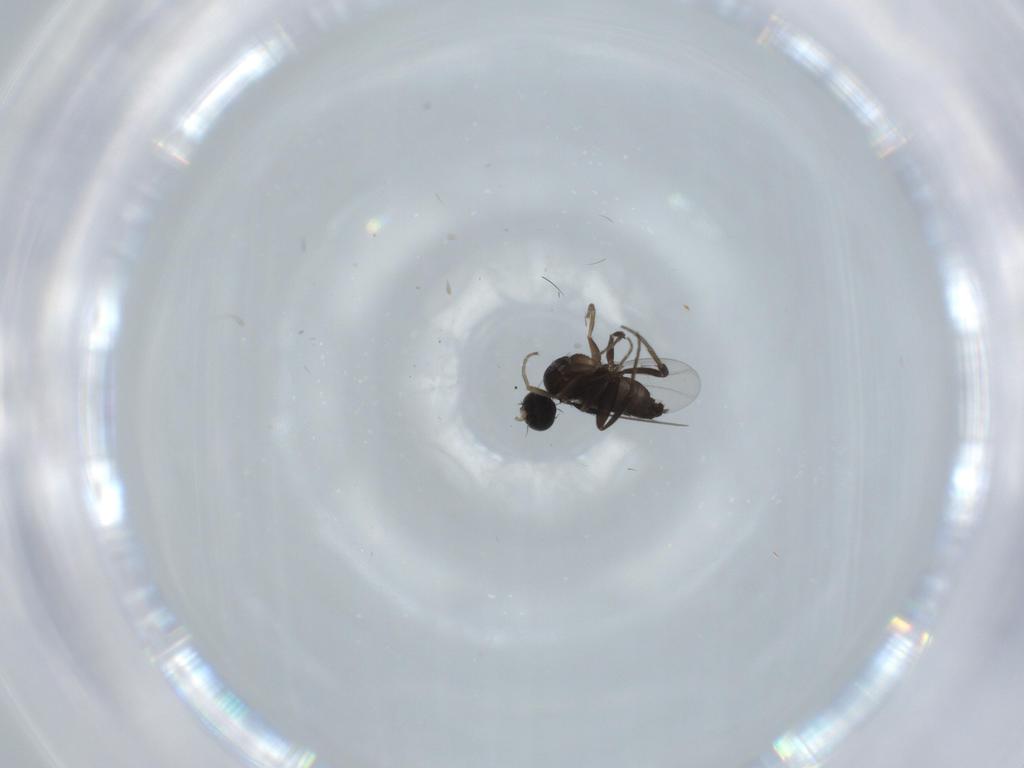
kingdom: Animalia
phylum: Arthropoda
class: Insecta
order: Diptera
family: Phoridae
